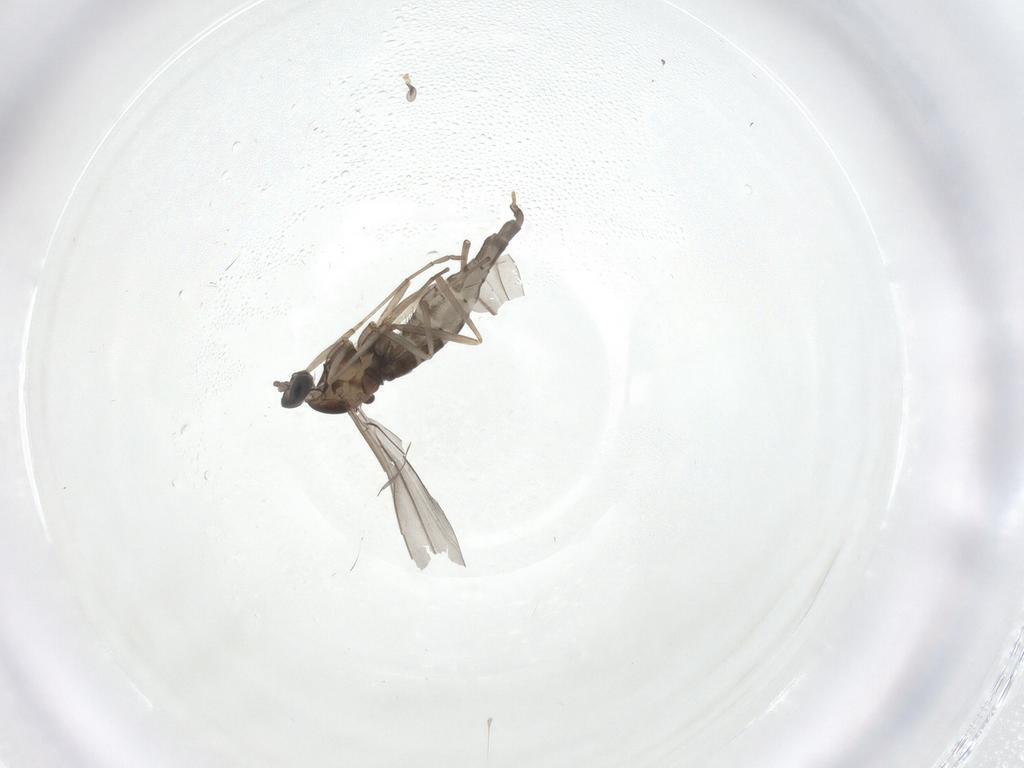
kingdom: Animalia
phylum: Arthropoda
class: Insecta
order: Diptera
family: Cecidomyiidae
